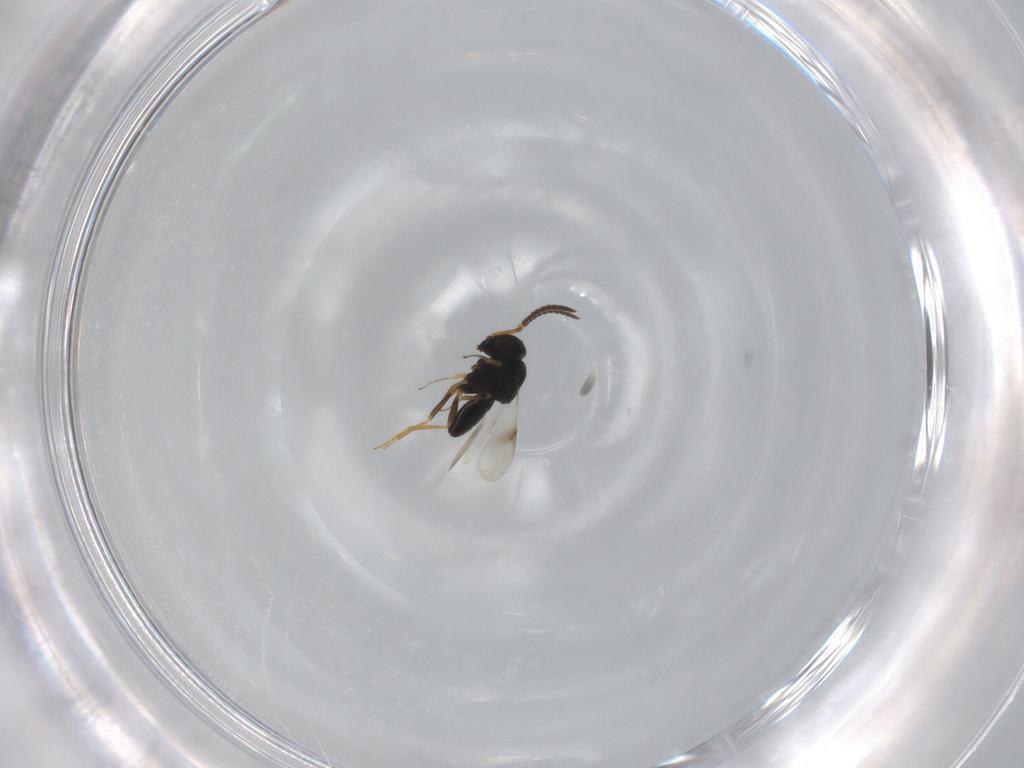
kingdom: Animalia
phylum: Arthropoda
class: Insecta
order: Hymenoptera
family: Scelionidae
